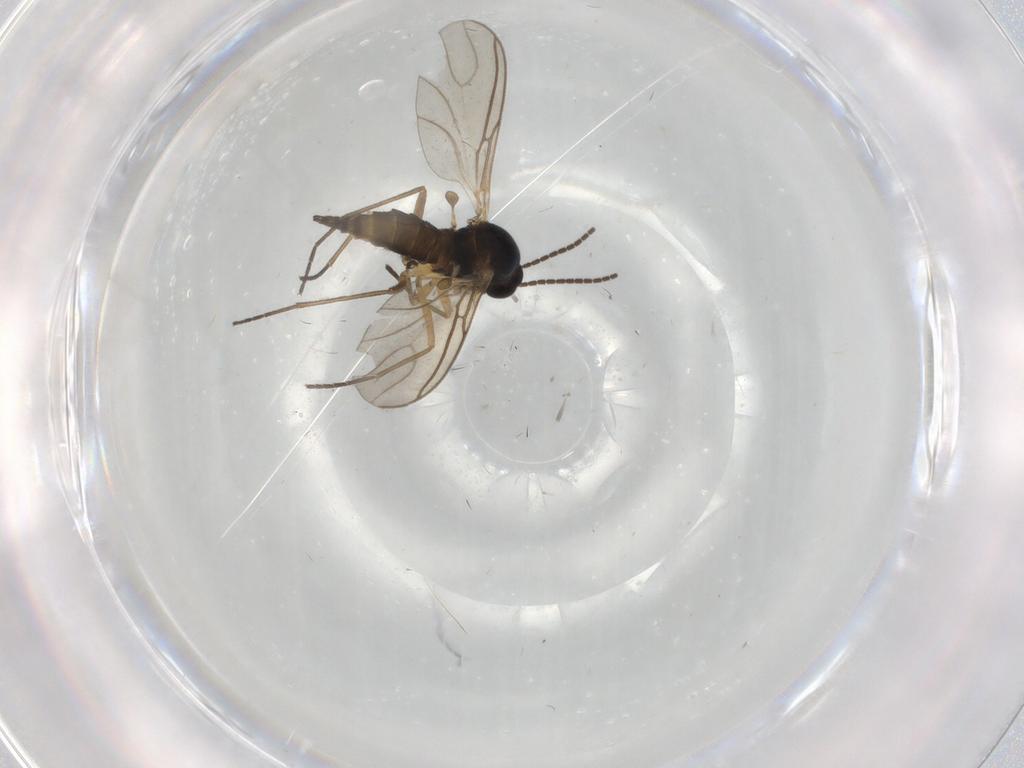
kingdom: Animalia
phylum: Arthropoda
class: Insecta
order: Diptera
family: Sciaridae
